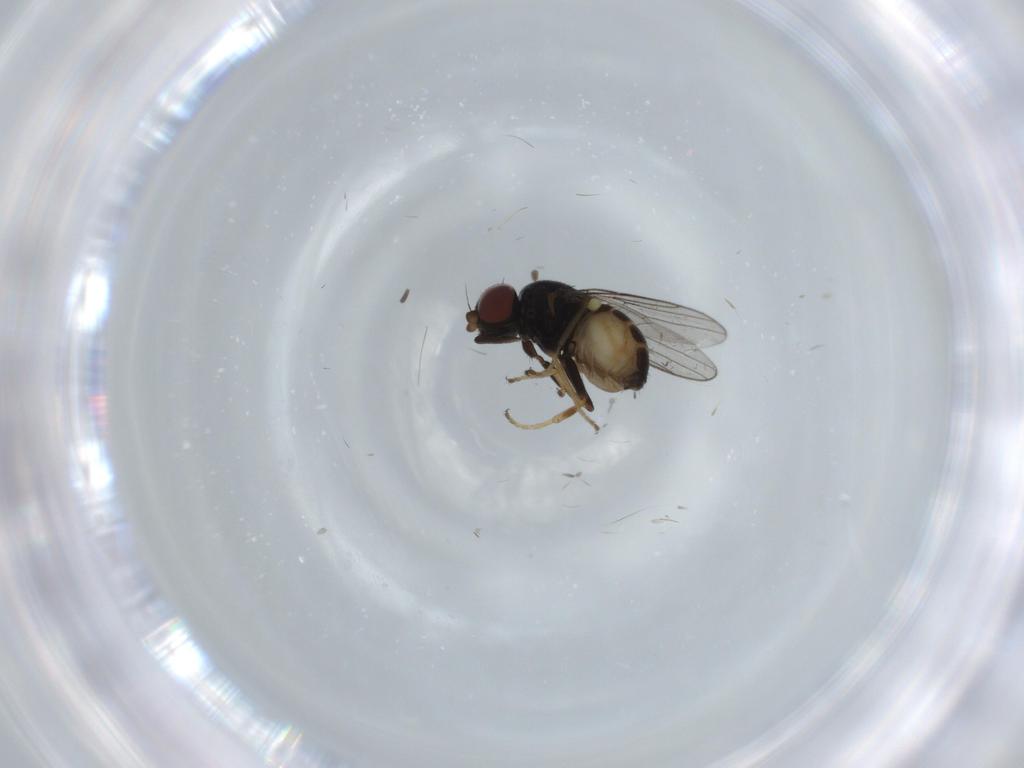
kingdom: Animalia
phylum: Arthropoda
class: Insecta
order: Diptera
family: Chloropidae
